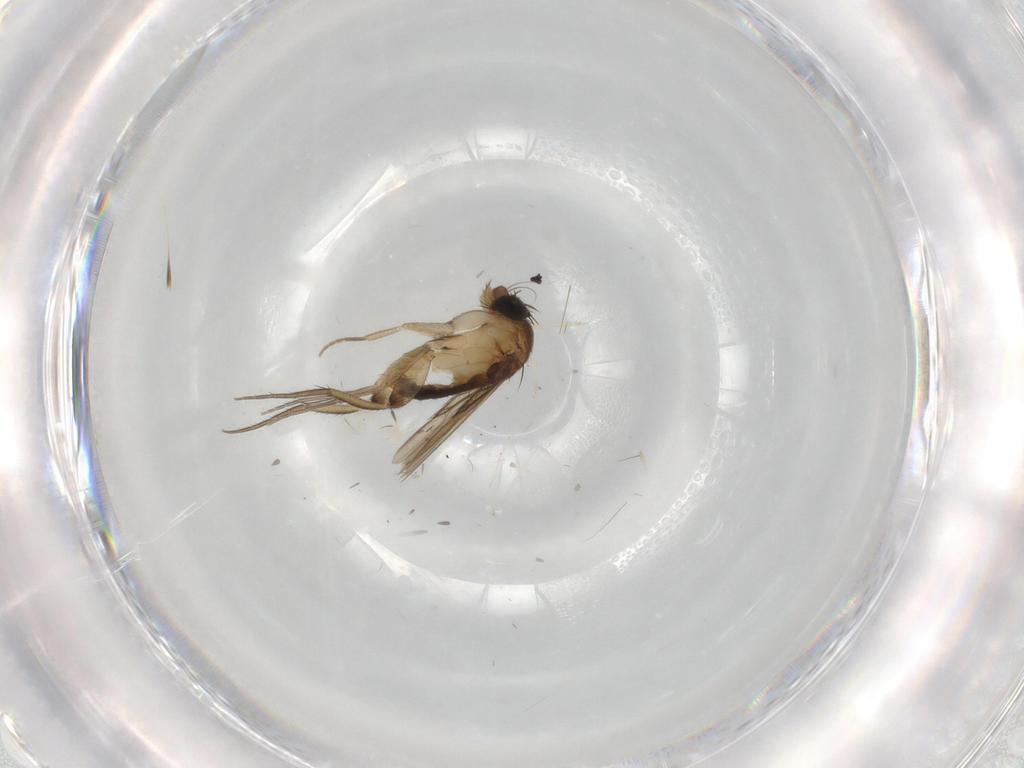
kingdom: Animalia
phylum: Arthropoda
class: Insecta
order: Diptera
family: Phoridae
